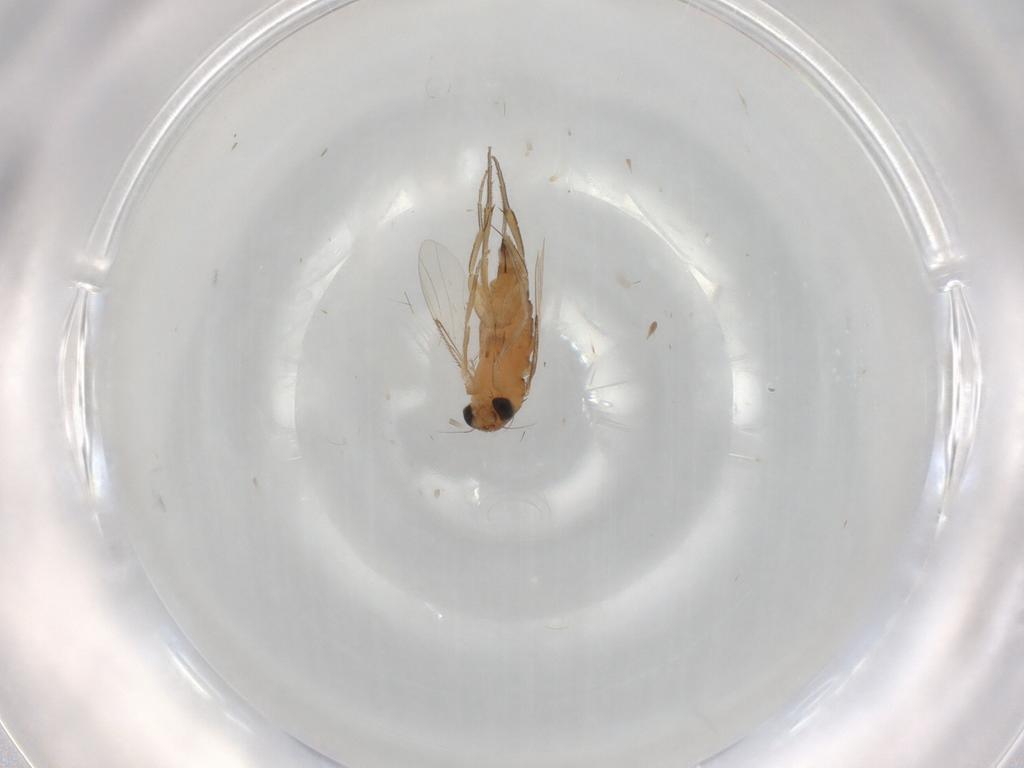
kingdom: Animalia
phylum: Arthropoda
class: Insecta
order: Diptera
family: Phoridae
